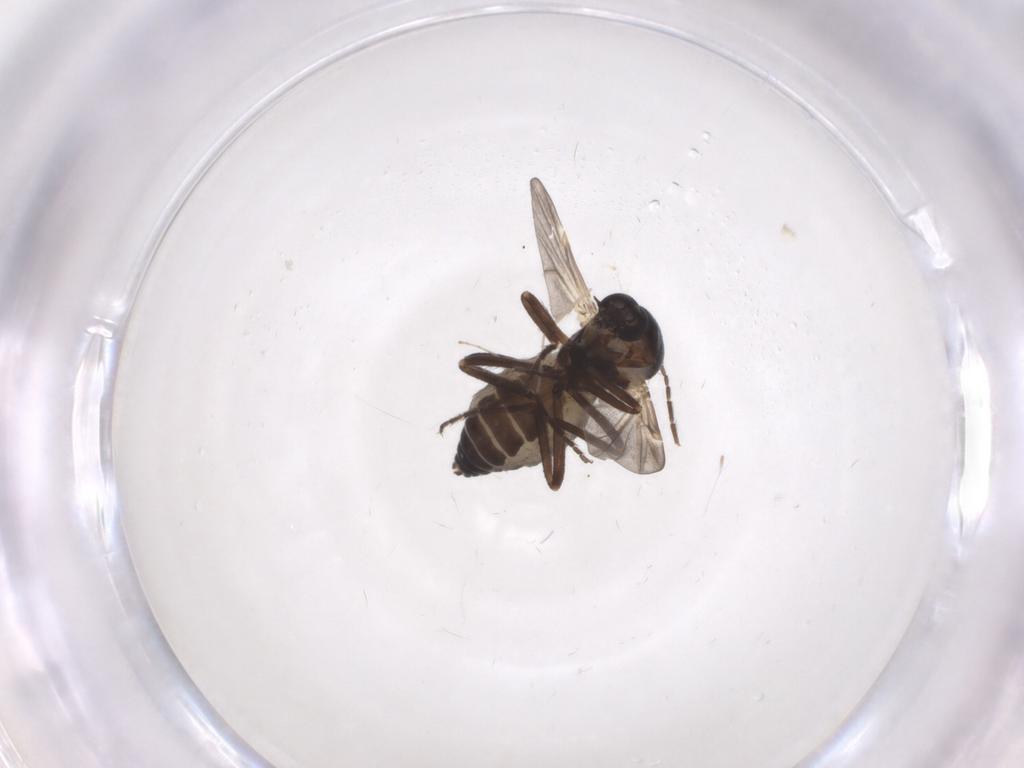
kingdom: Animalia
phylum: Arthropoda
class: Insecta
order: Diptera
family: Ceratopogonidae
